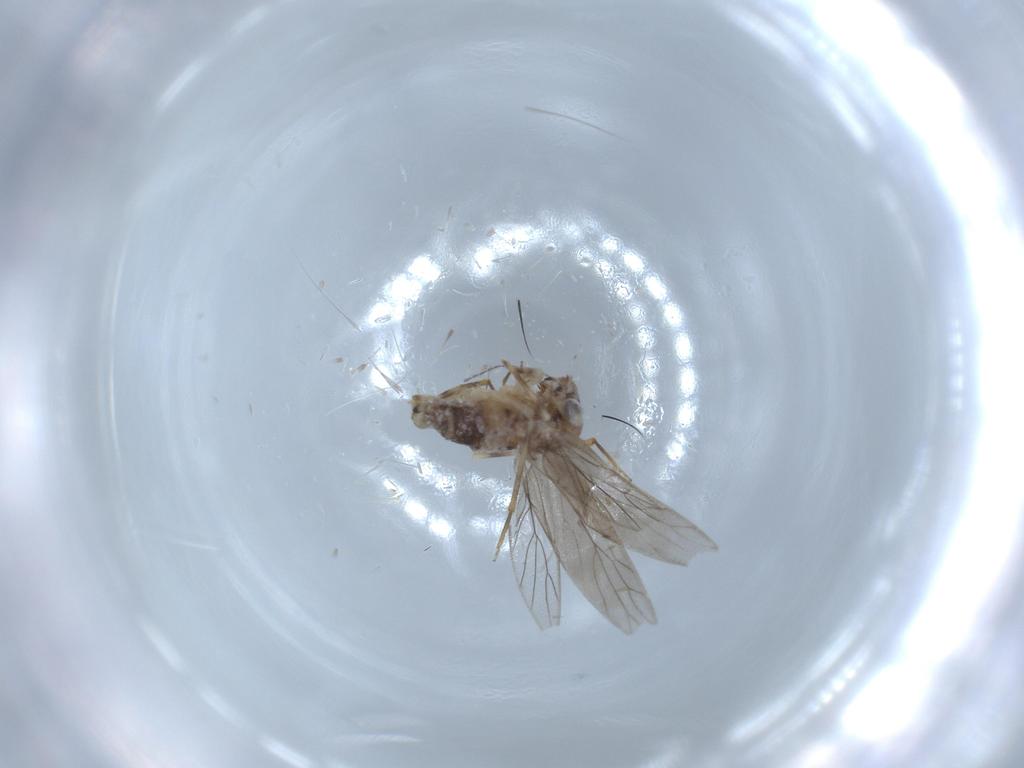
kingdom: Animalia
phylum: Arthropoda
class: Insecta
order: Psocodea
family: Lepidopsocidae
